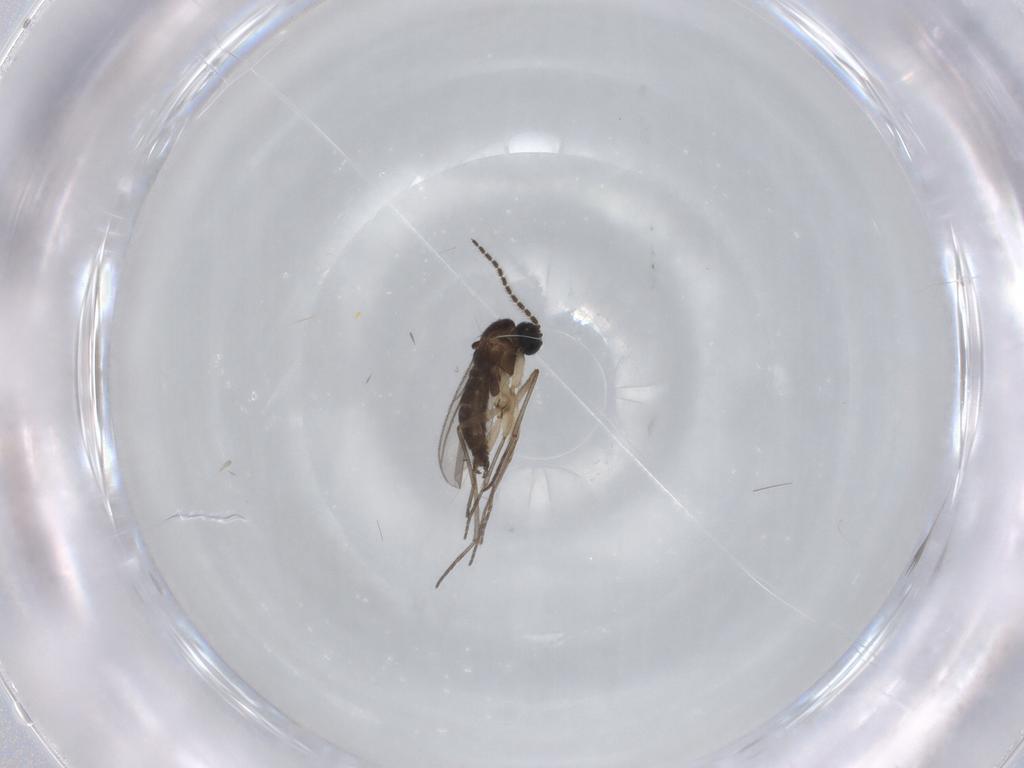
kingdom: Animalia
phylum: Arthropoda
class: Insecta
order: Diptera
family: Sciaridae
